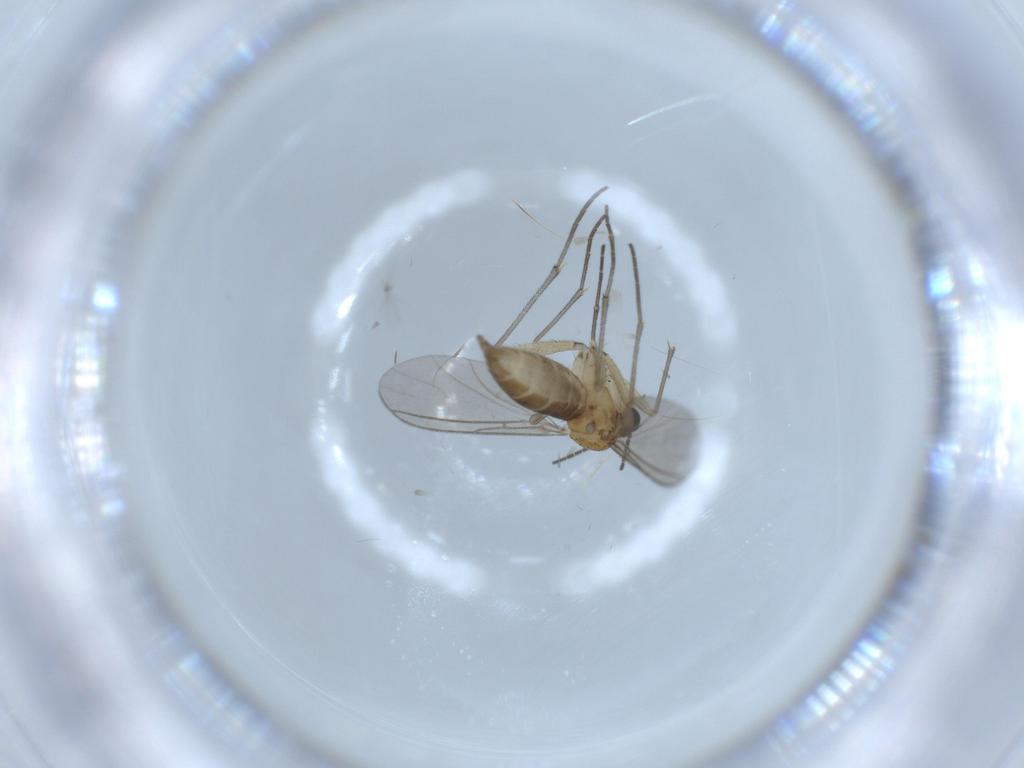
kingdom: Animalia
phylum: Arthropoda
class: Insecta
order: Diptera
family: Sciaridae
